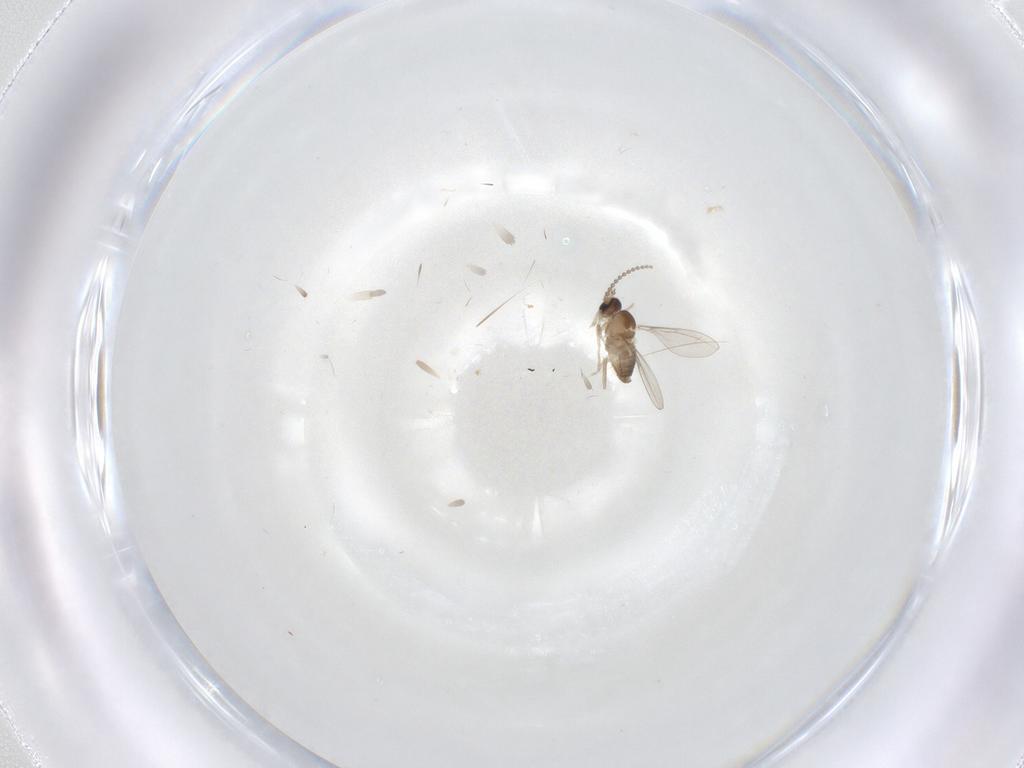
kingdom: Animalia
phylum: Arthropoda
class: Insecta
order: Diptera
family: Cecidomyiidae
